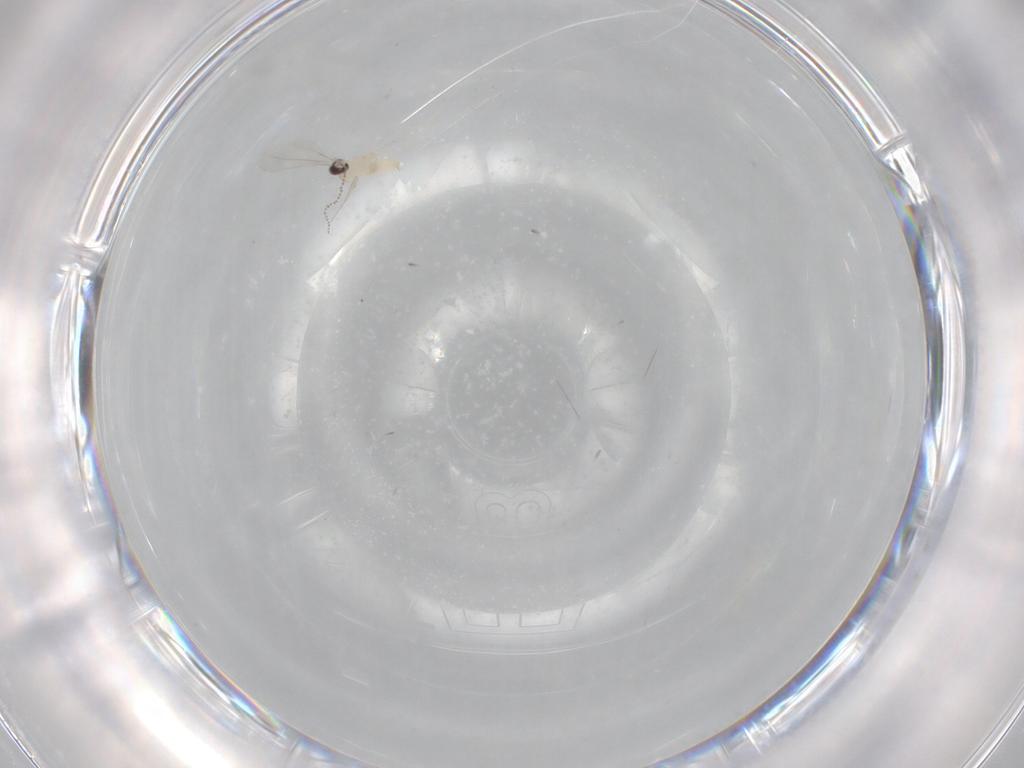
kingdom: Animalia
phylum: Arthropoda
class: Insecta
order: Diptera
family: Cecidomyiidae
